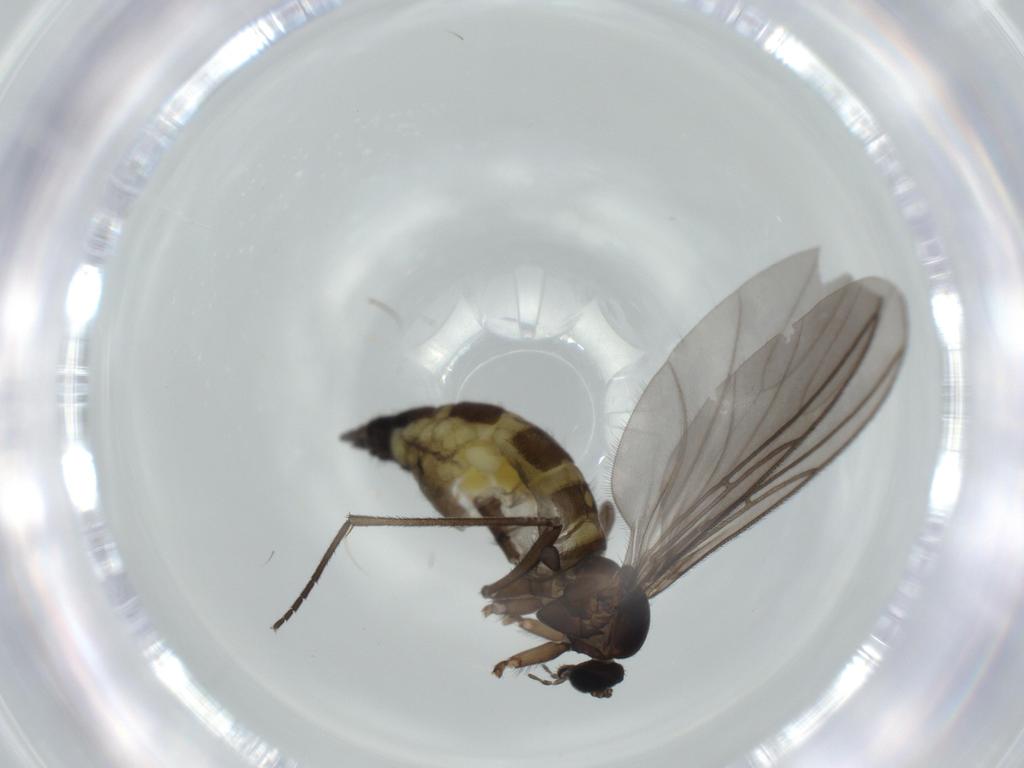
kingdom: Animalia
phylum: Arthropoda
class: Insecta
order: Diptera
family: Sciaridae
